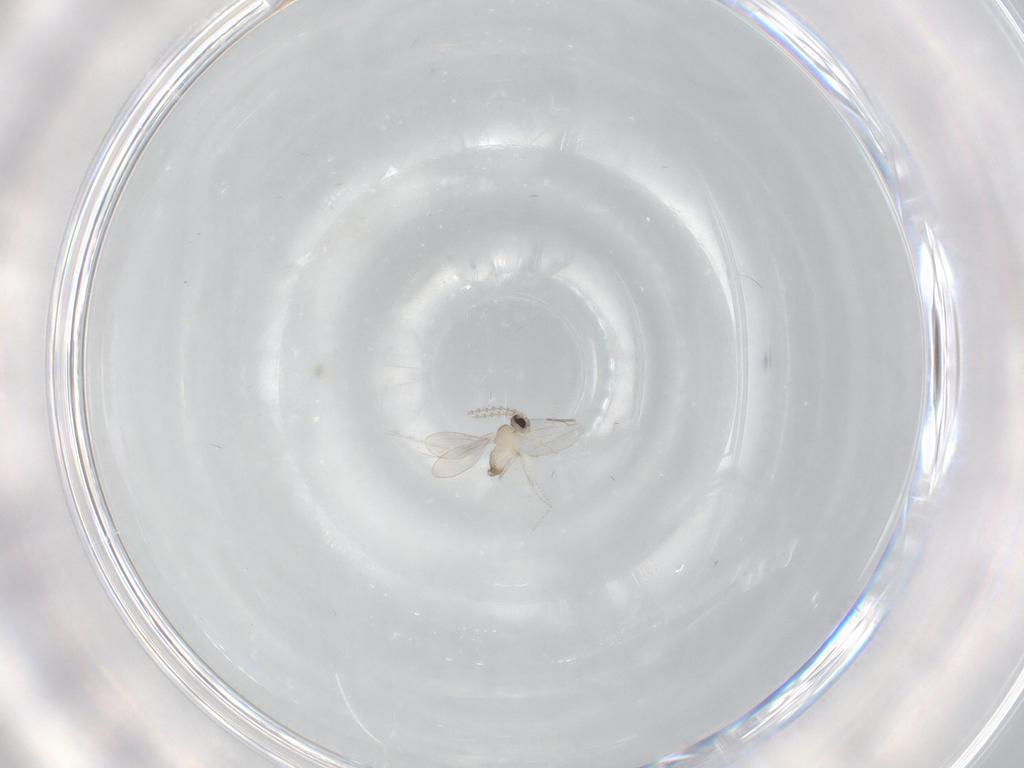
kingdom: Animalia
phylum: Arthropoda
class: Insecta
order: Diptera
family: Cecidomyiidae
